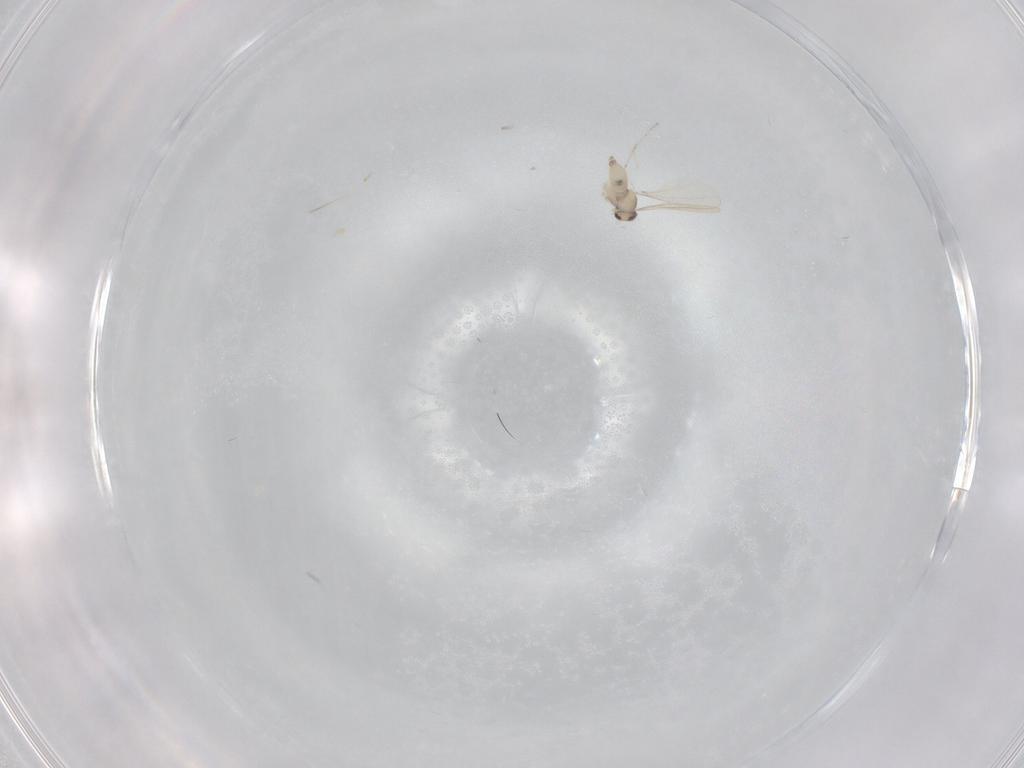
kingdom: Animalia
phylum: Arthropoda
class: Insecta
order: Diptera
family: Cecidomyiidae
